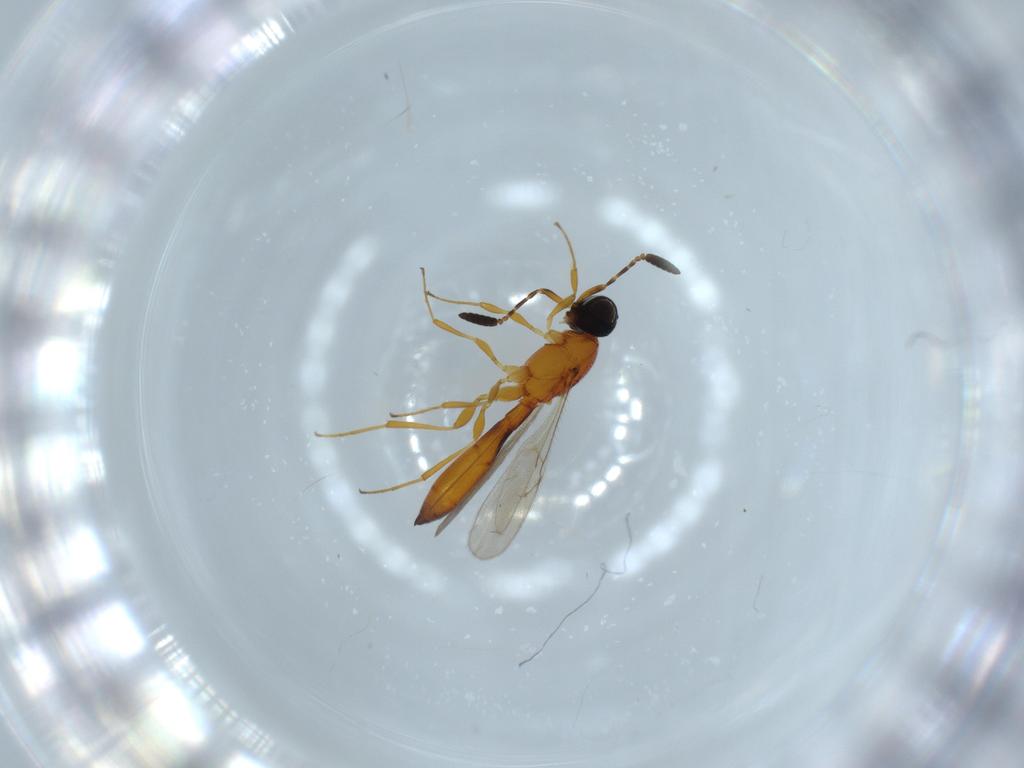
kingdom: Animalia
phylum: Arthropoda
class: Insecta
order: Hymenoptera
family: Scelionidae
